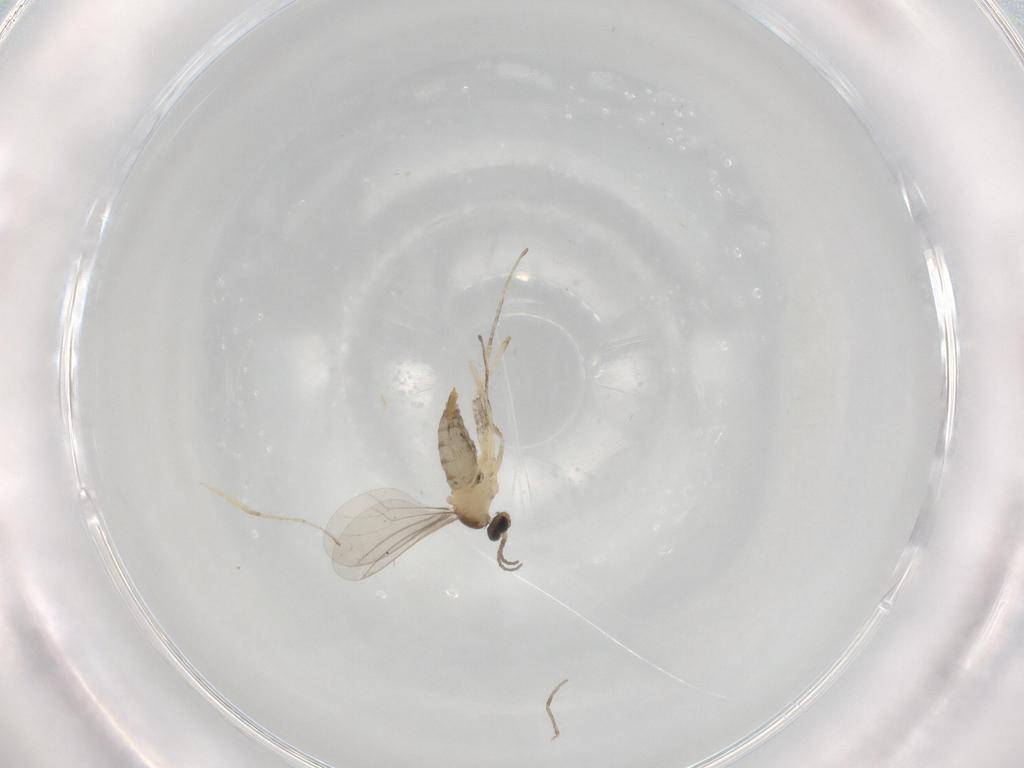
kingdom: Animalia
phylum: Arthropoda
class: Insecta
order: Diptera
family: Cecidomyiidae
